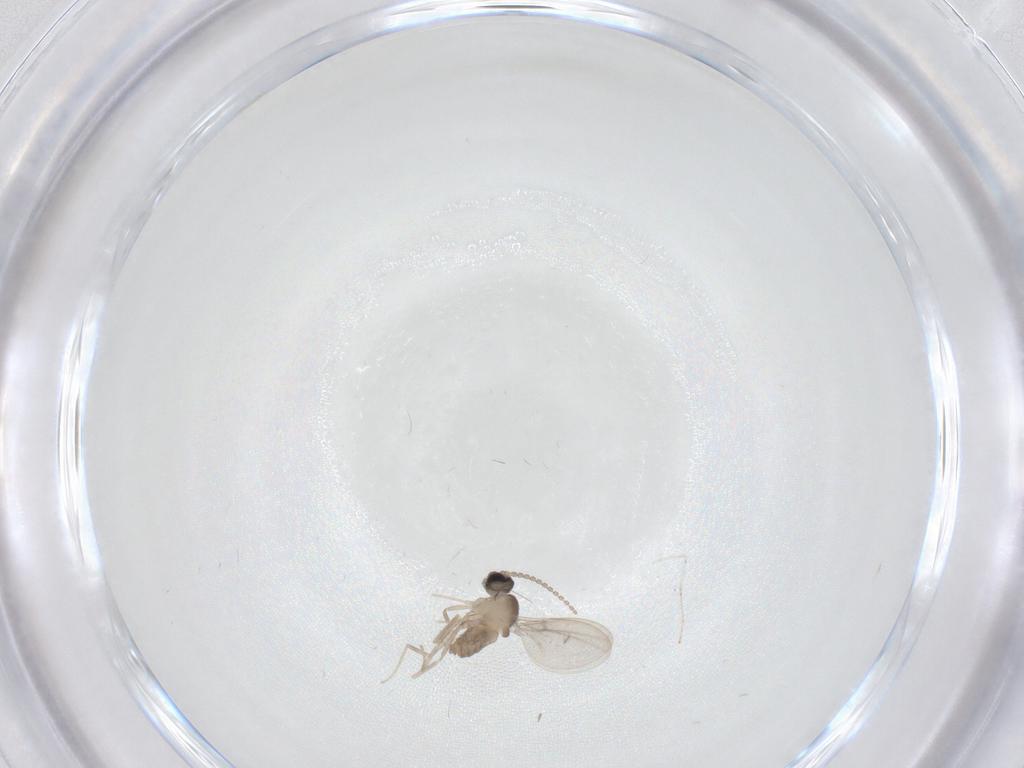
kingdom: Animalia
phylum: Arthropoda
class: Insecta
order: Diptera
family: Cecidomyiidae
